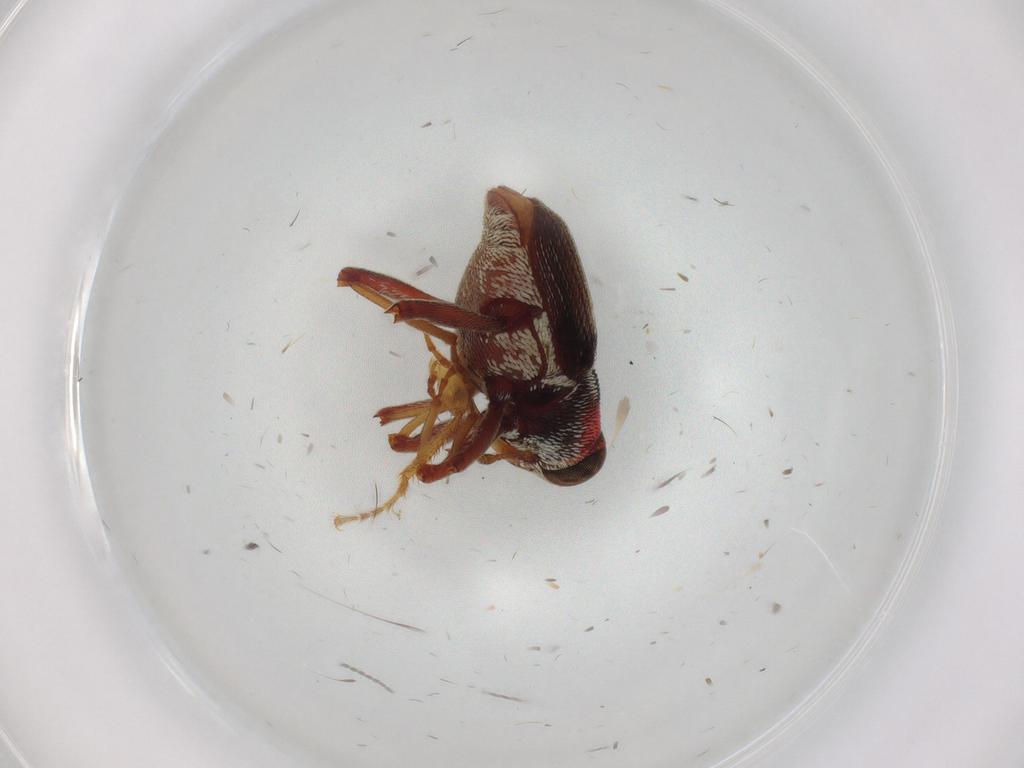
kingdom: Animalia
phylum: Arthropoda
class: Insecta
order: Coleoptera
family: Curculionidae
